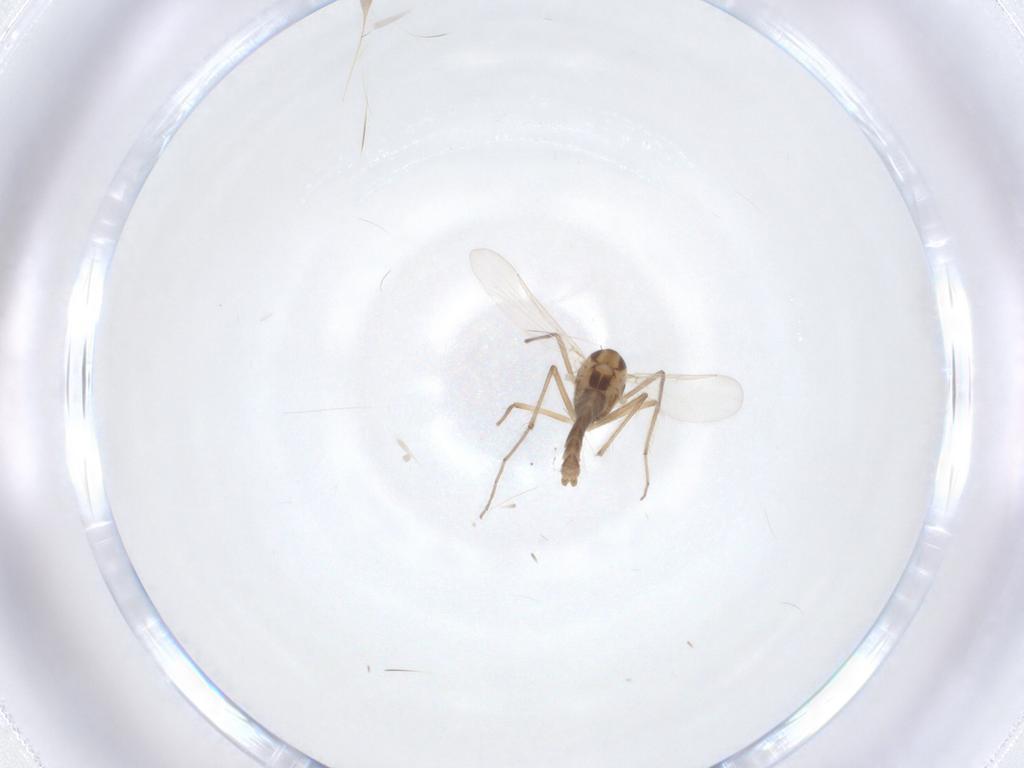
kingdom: Animalia
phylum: Arthropoda
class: Insecta
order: Diptera
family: Chironomidae
